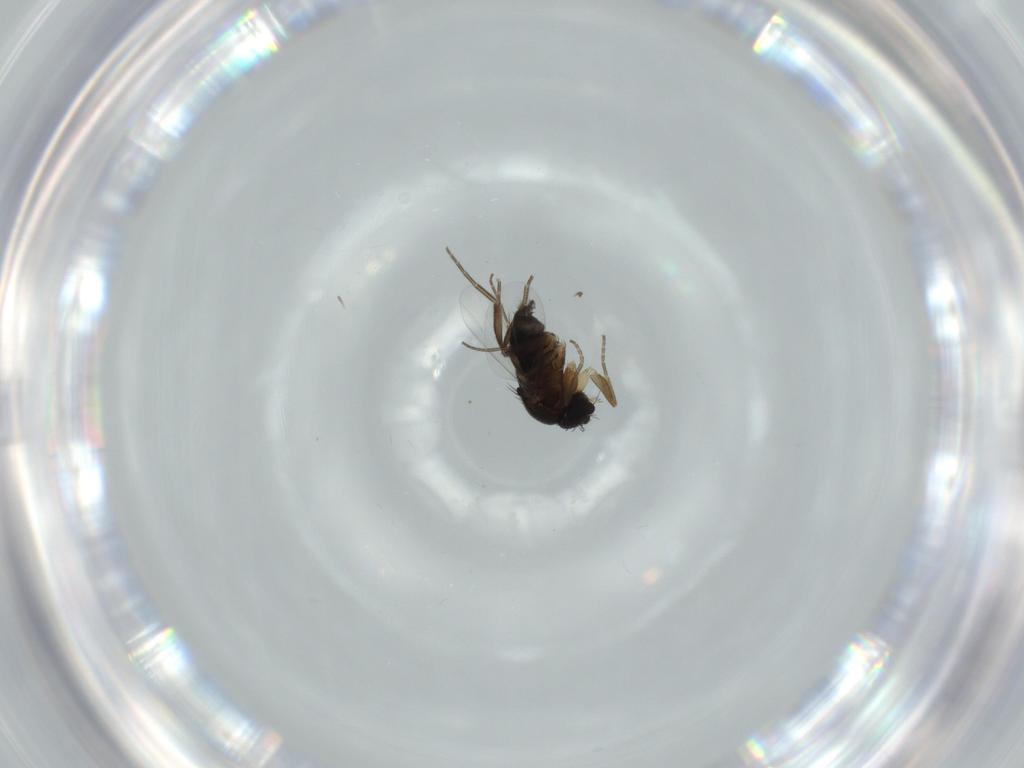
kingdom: Animalia
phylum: Arthropoda
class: Insecta
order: Diptera
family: Phoridae
